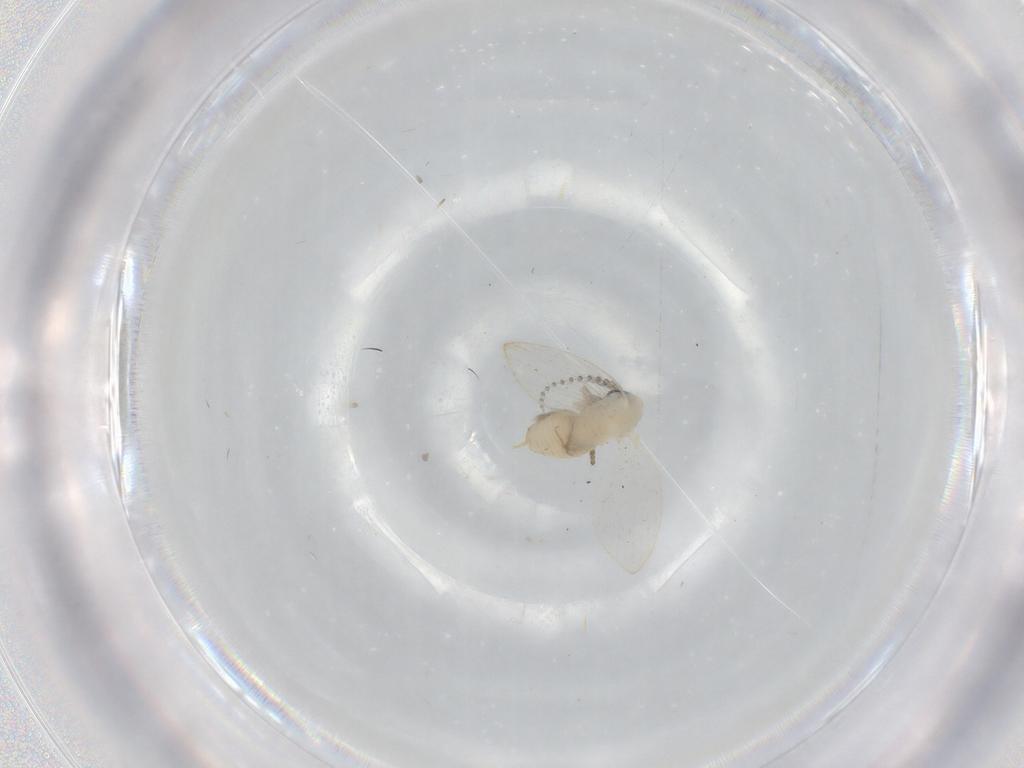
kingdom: Animalia
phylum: Arthropoda
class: Insecta
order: Diptera
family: Psychodidae
